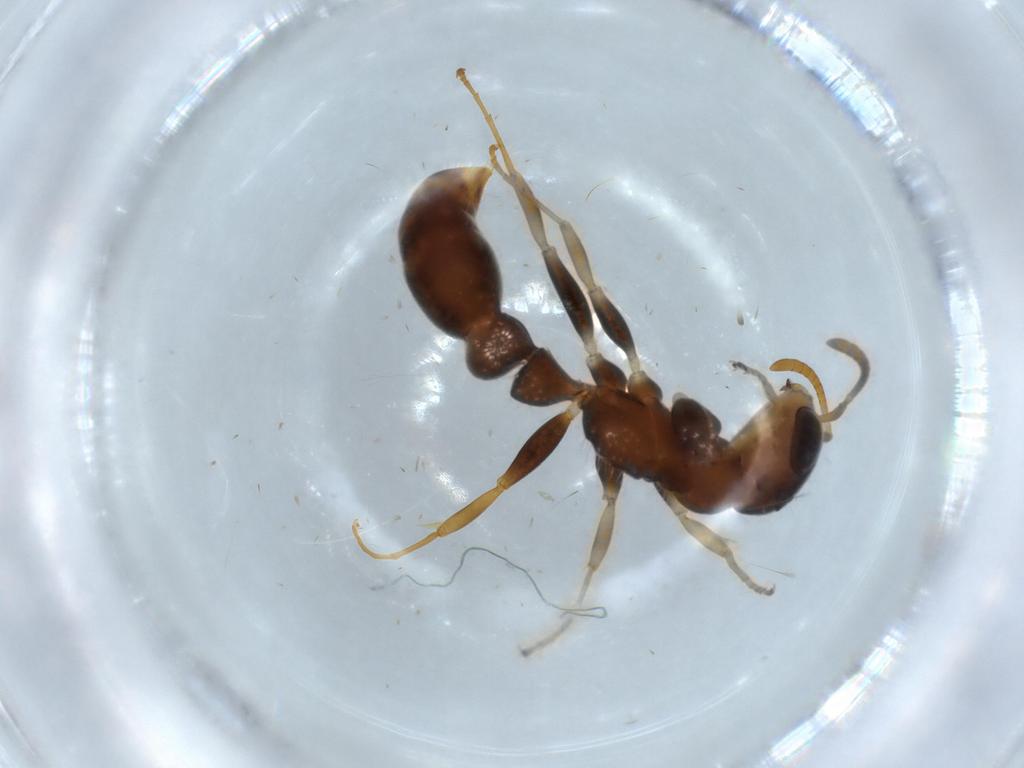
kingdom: Animalia
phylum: Arthropoda
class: Insecta
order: Hymenoptera
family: Formicidae
